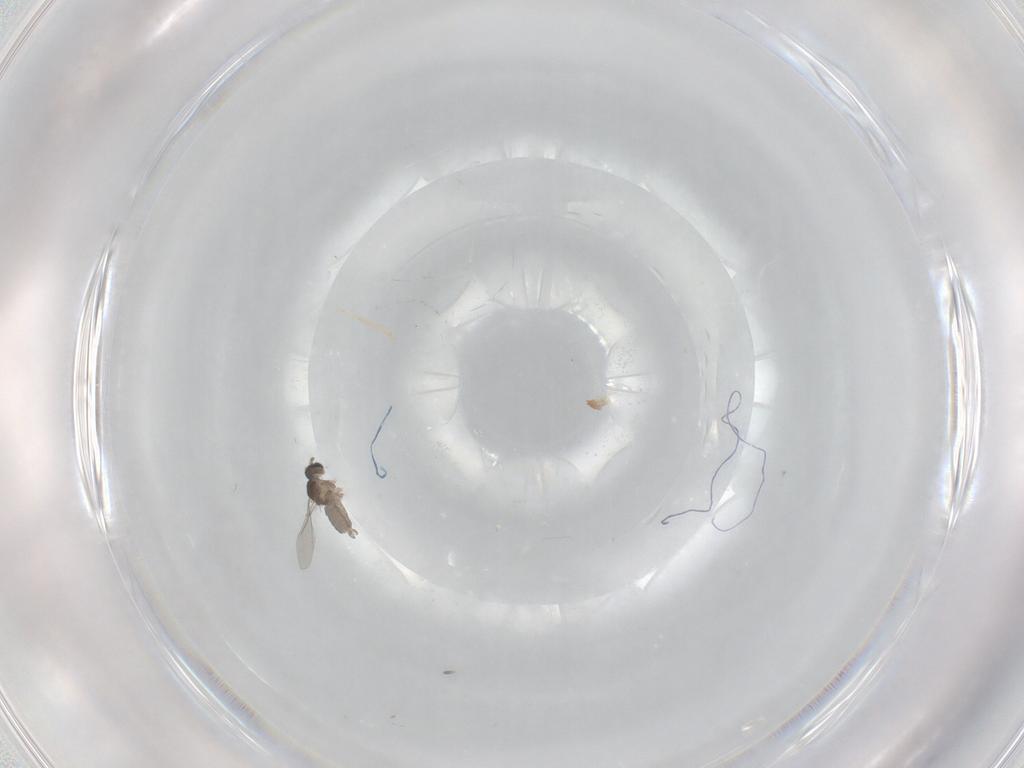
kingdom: Animalia
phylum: Arthropoda
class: Insecta
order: Diptera
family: Cecidomyiidae
